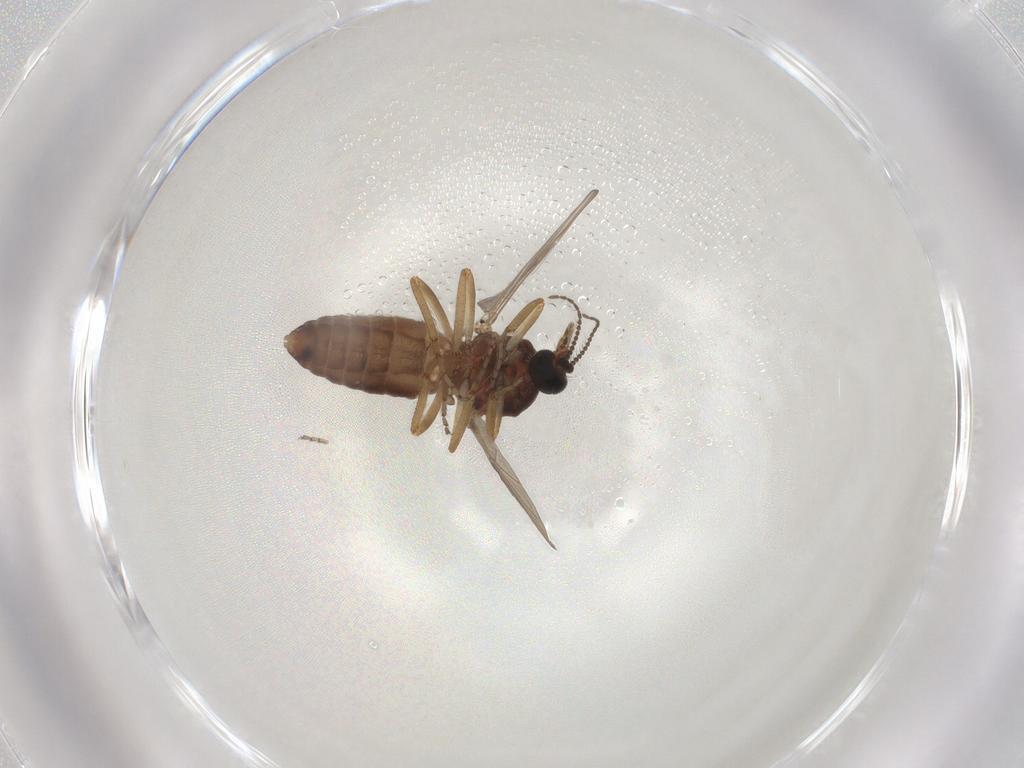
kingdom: Animalia
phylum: Arthropoda
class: Insecta
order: Diptera
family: Ceratopogonidae
